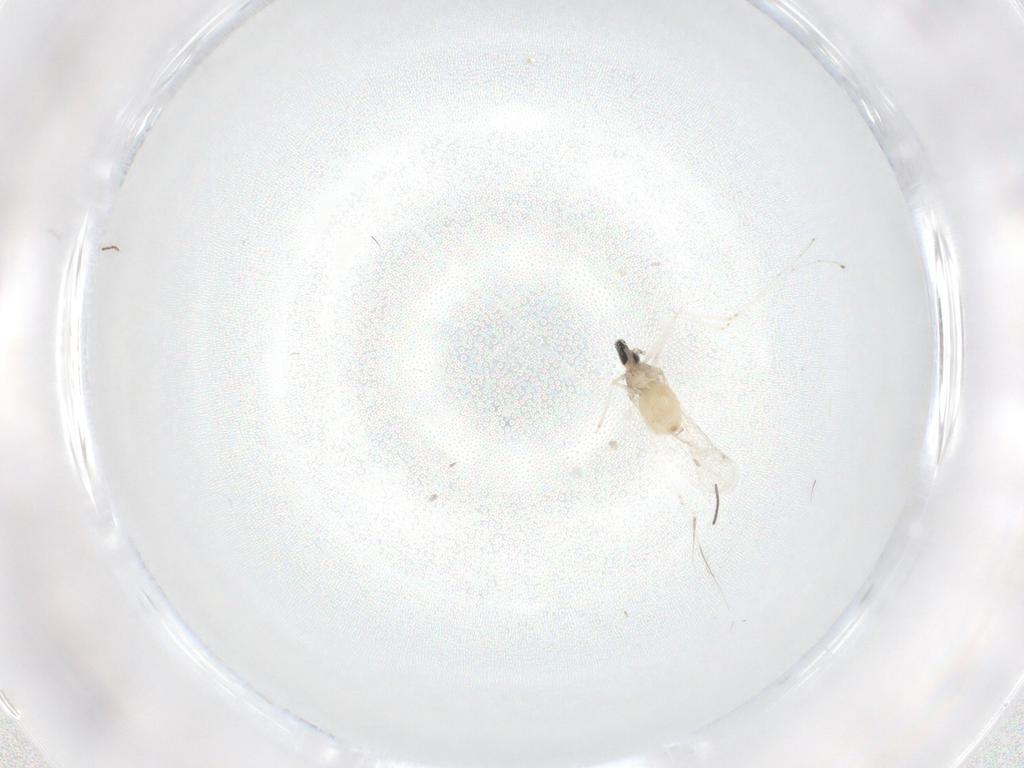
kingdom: Animalia
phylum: Arthropoda
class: Insecta
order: Diptera
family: Cecidomyiidae
